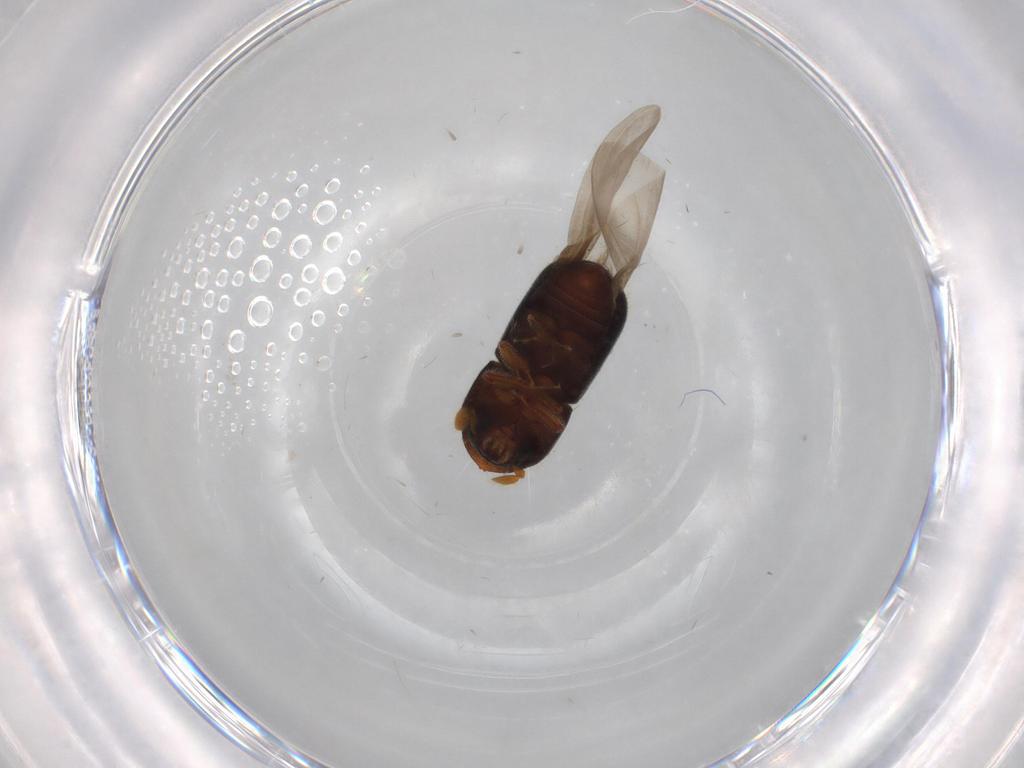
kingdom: Animalia
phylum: Arthropoda
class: Insecta
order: Coleoptera
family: Curculionidae
